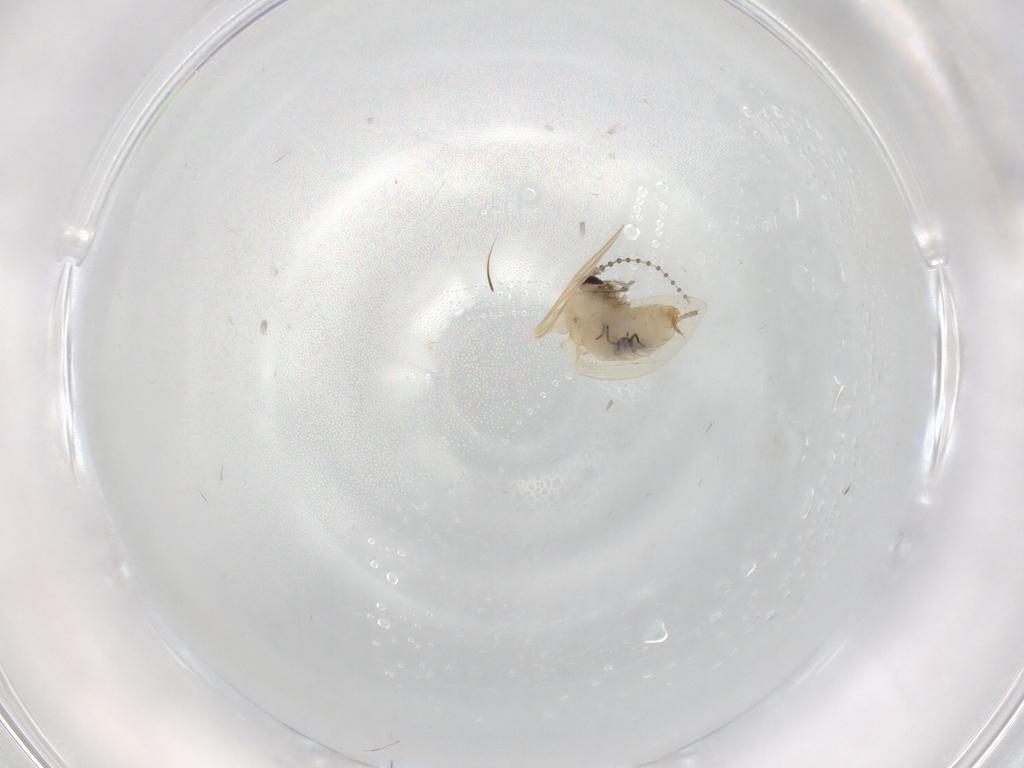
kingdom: Animalia
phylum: Arthropoda
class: Insecta
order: Diptera
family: Psychodidae
